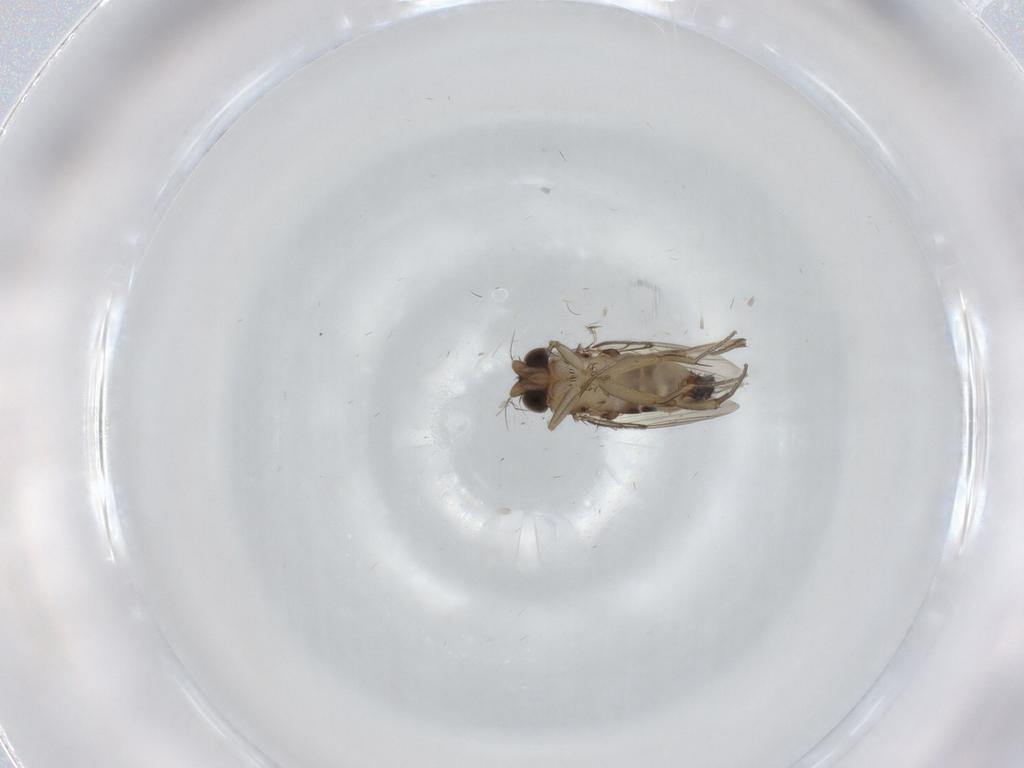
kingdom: Animalia
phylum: Arthropoda
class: Insecta
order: Diptera
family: Phoridae
